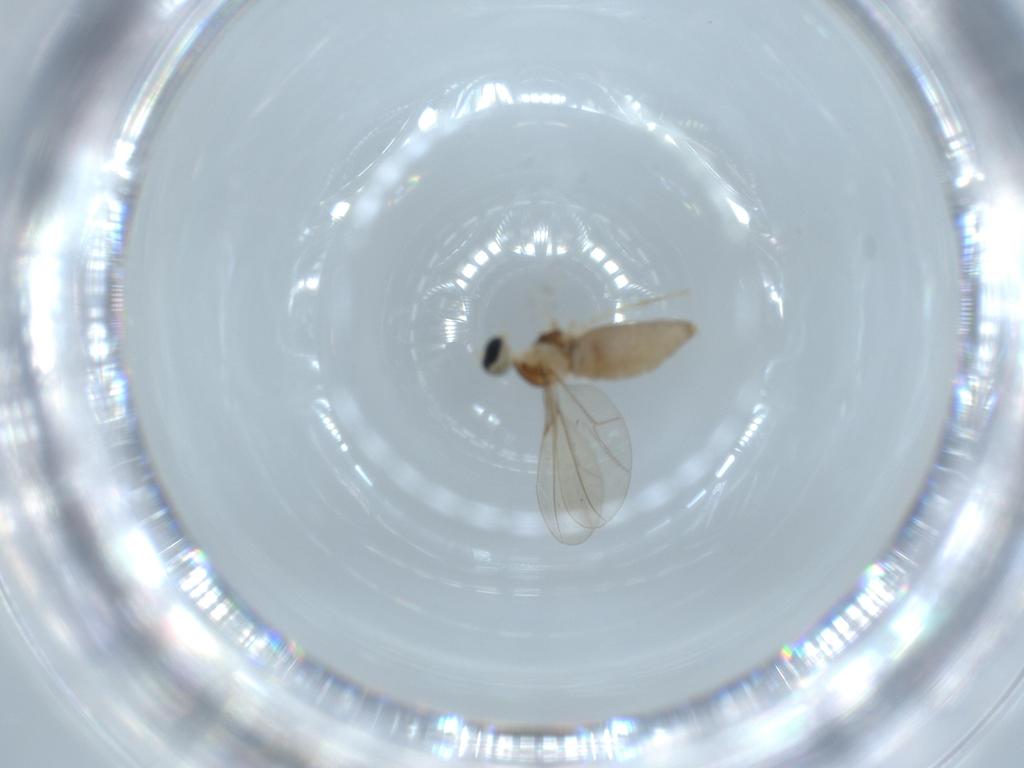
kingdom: Animalia
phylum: Arthropoda
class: Insecta
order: Diptera
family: Cecidomyiidae
